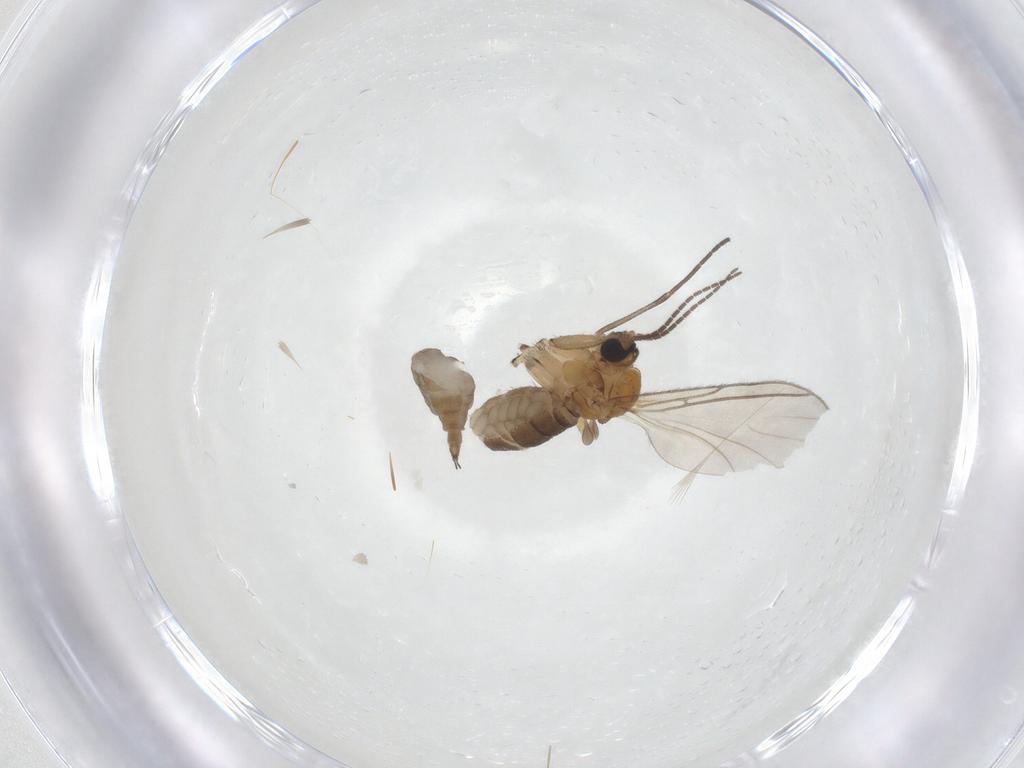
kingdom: Animalia
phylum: Arthropoda
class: Insecta
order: Diptera
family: Sciaridae
